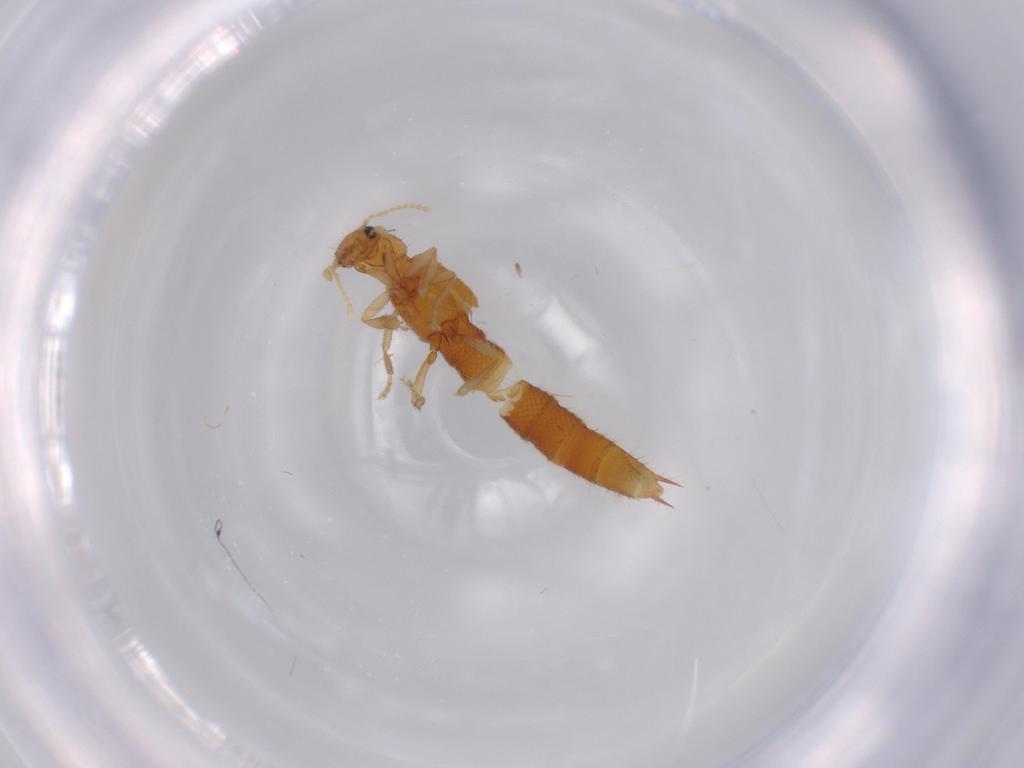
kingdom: Animalia
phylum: Arthropoda
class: Insecta
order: Coleoptera
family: Staphylinidae
